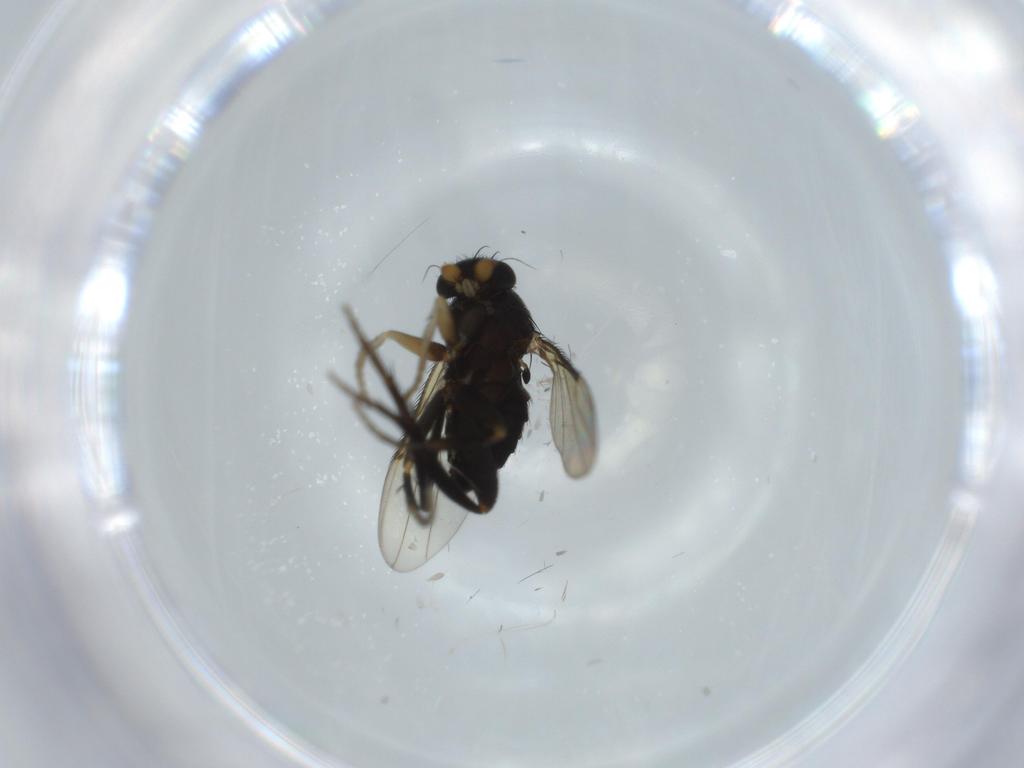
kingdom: Animalia
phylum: Arthropoda
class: Insecta
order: Diptera
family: Phoridae
